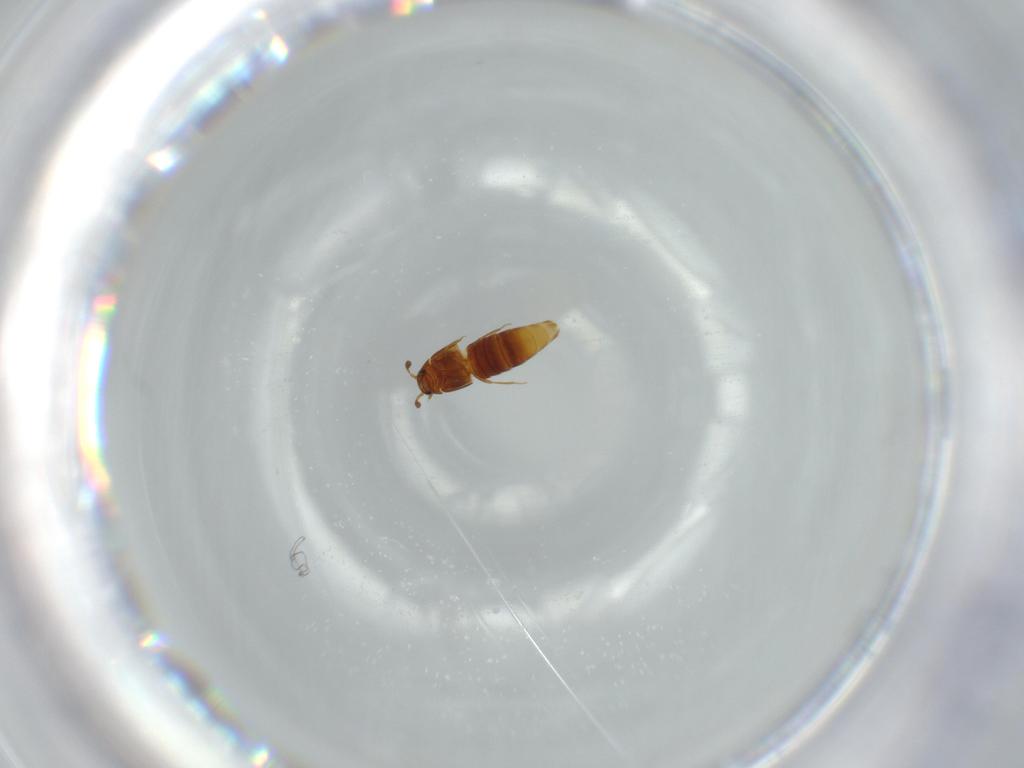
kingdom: Animalia
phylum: Arthropoda
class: Insecta
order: Coleoptera
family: Staphylinidae
